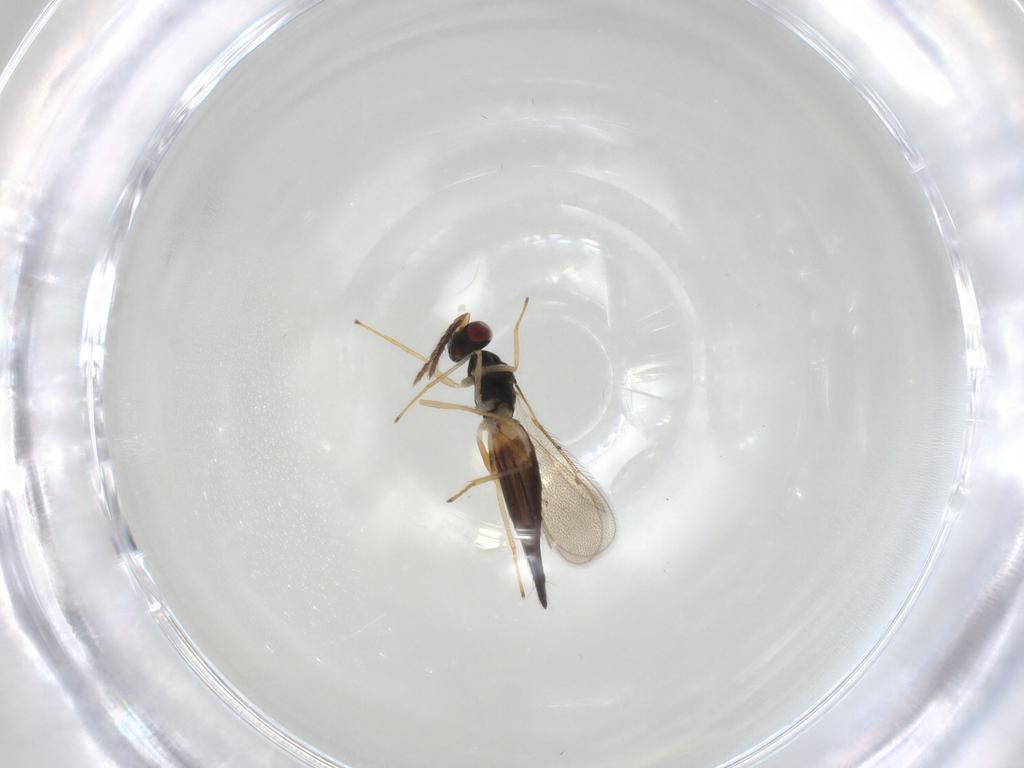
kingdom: Animalia
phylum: Arthropoda
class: Insecta
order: Hymenoptera
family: Eulophidae
